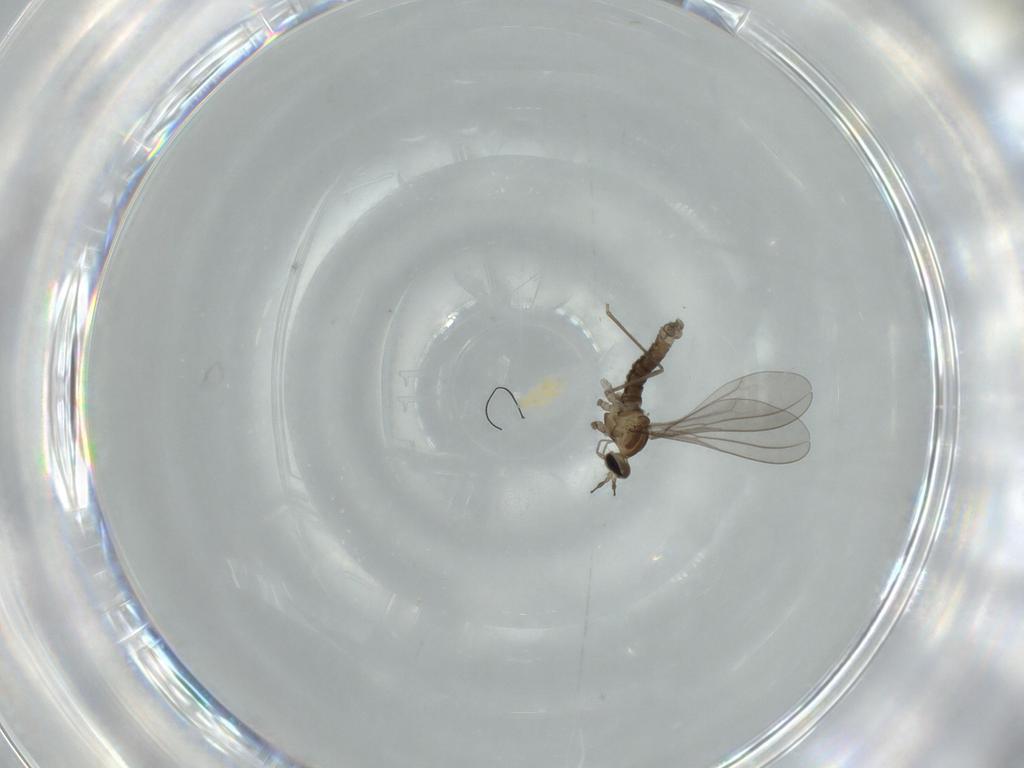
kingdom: Animalia
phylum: Arthropoda
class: Insecta
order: Diptera
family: Cecidomyiidae
